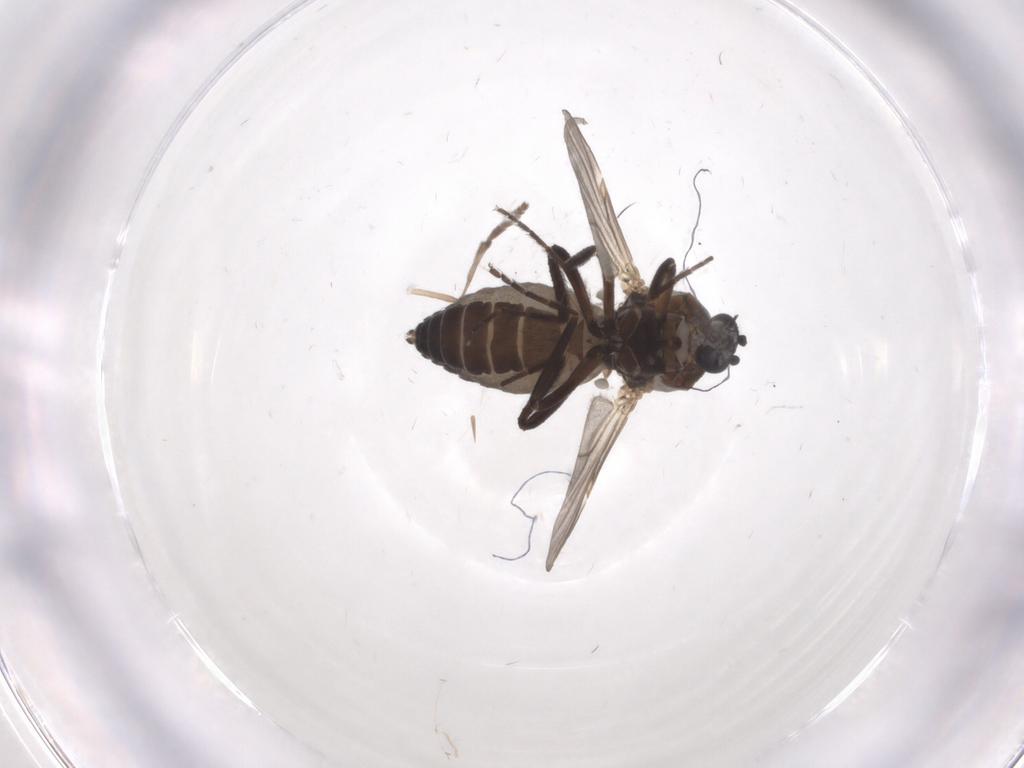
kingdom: Animalia
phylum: Arthropoda
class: Insecta
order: Diptera
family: Ceratopogonidae
